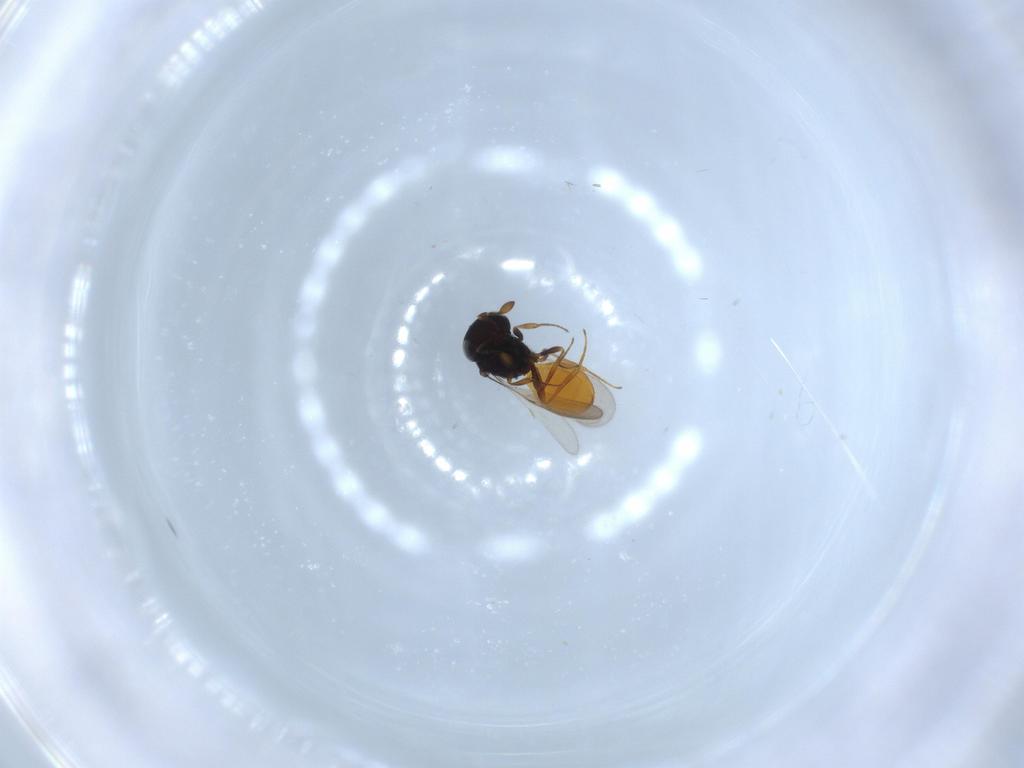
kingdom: Animalia
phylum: Arthropoda
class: Insecta
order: Hymenoptera
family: Scelionidae
